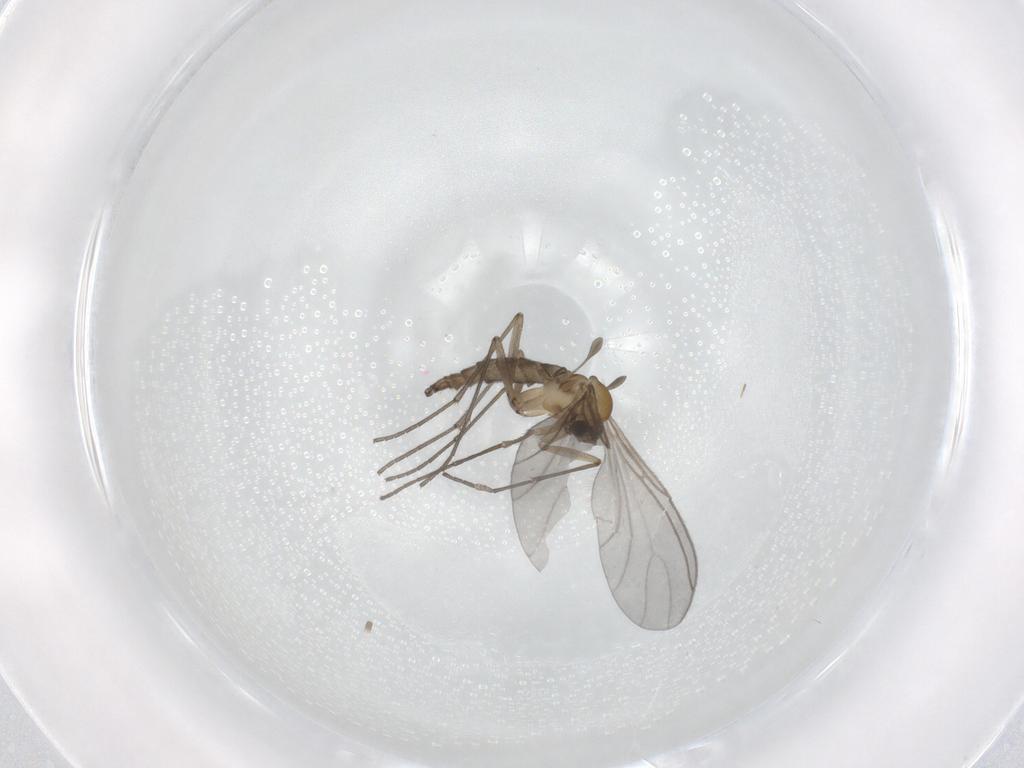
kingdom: Animalia
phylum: Arthropoda
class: Insecta
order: Diptera
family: Sciaridae
